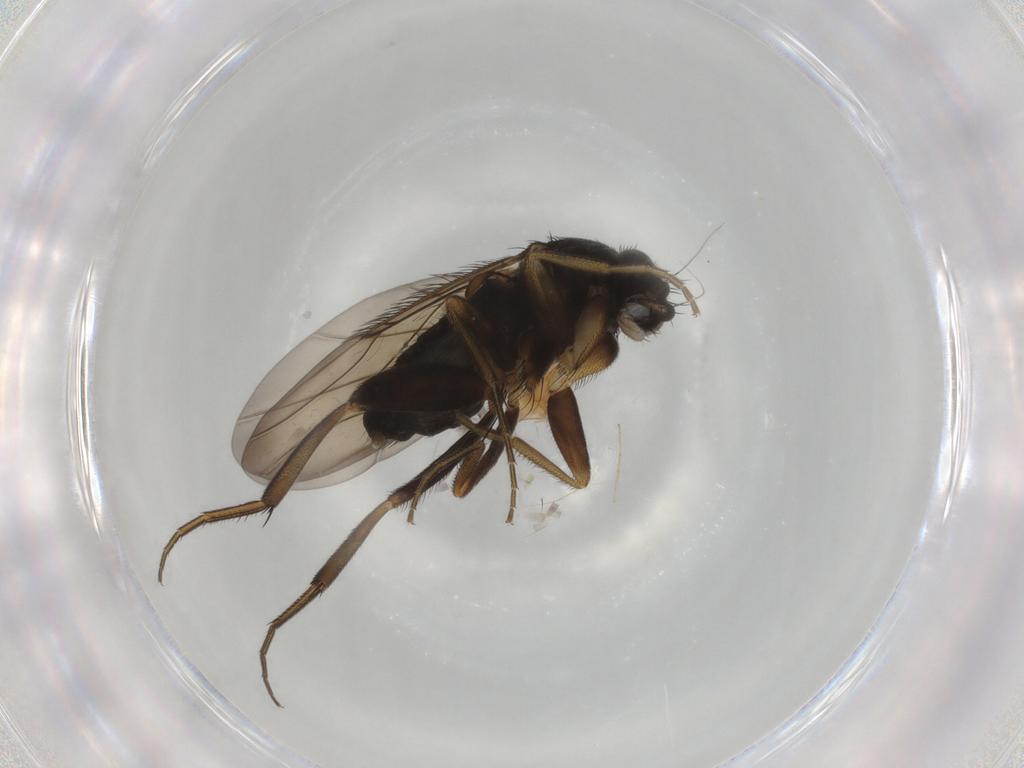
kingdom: Animalia
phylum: Arthropoda
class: Insecta
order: Diptera
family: Phoridae
